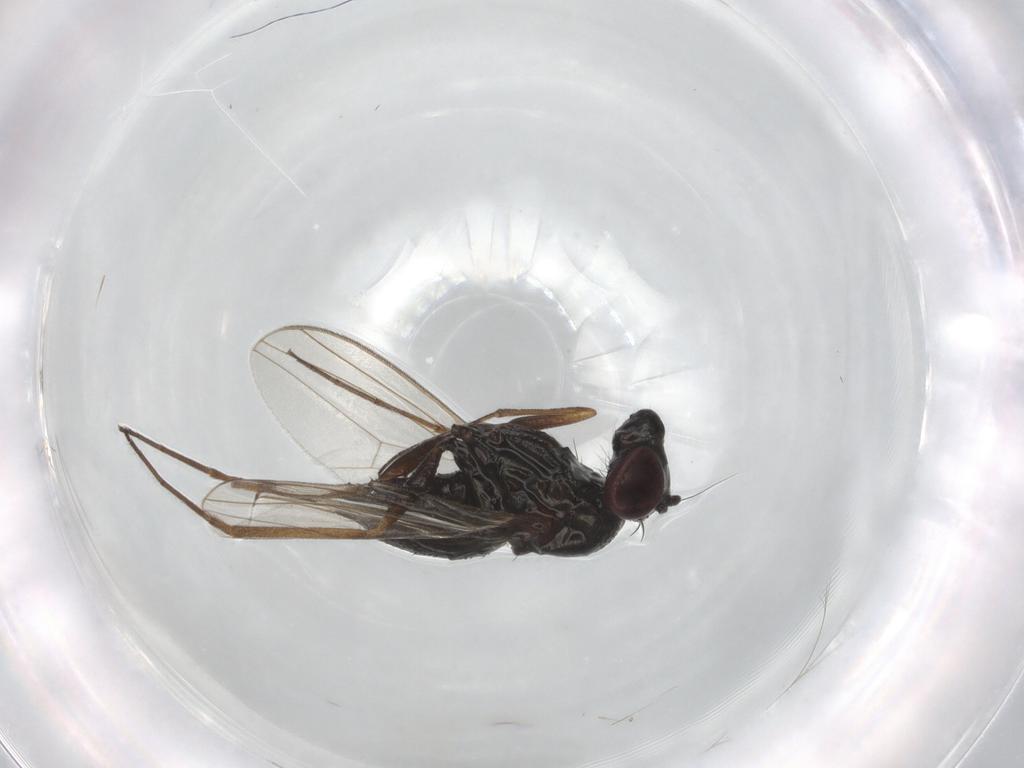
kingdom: Animalia
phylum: Arthropoda
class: Insecta
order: Diptera
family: Dolichopodidae
